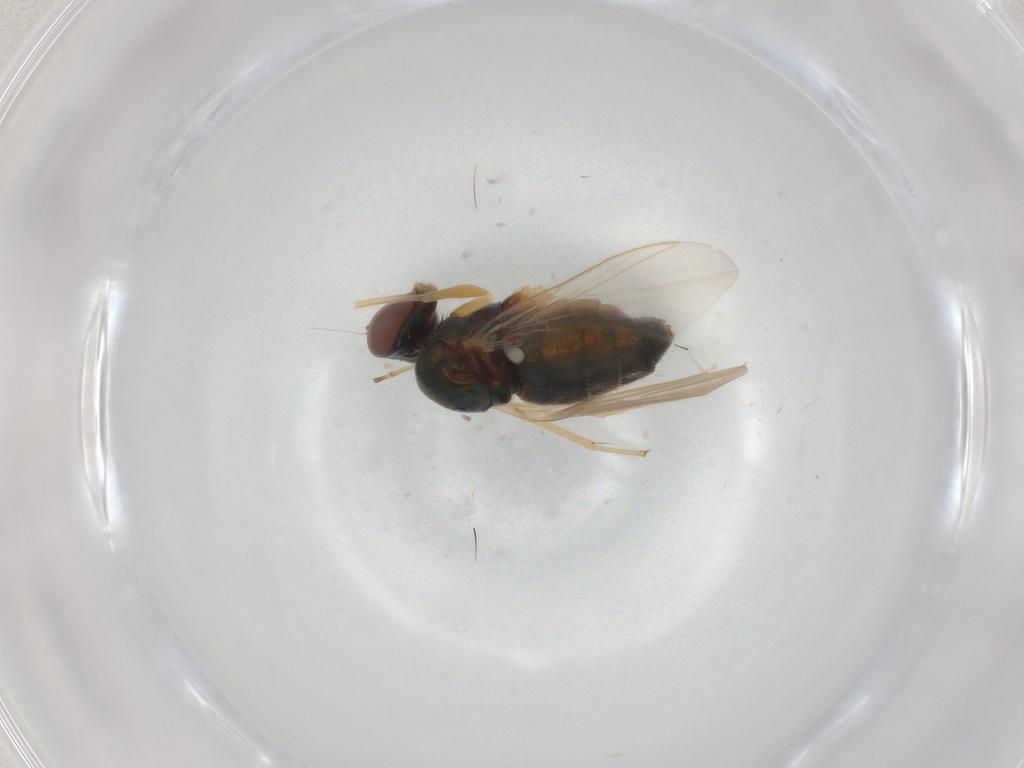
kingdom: Animalia
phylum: Arthropoda
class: Insecta
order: Diptera
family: Dolichopodidae
